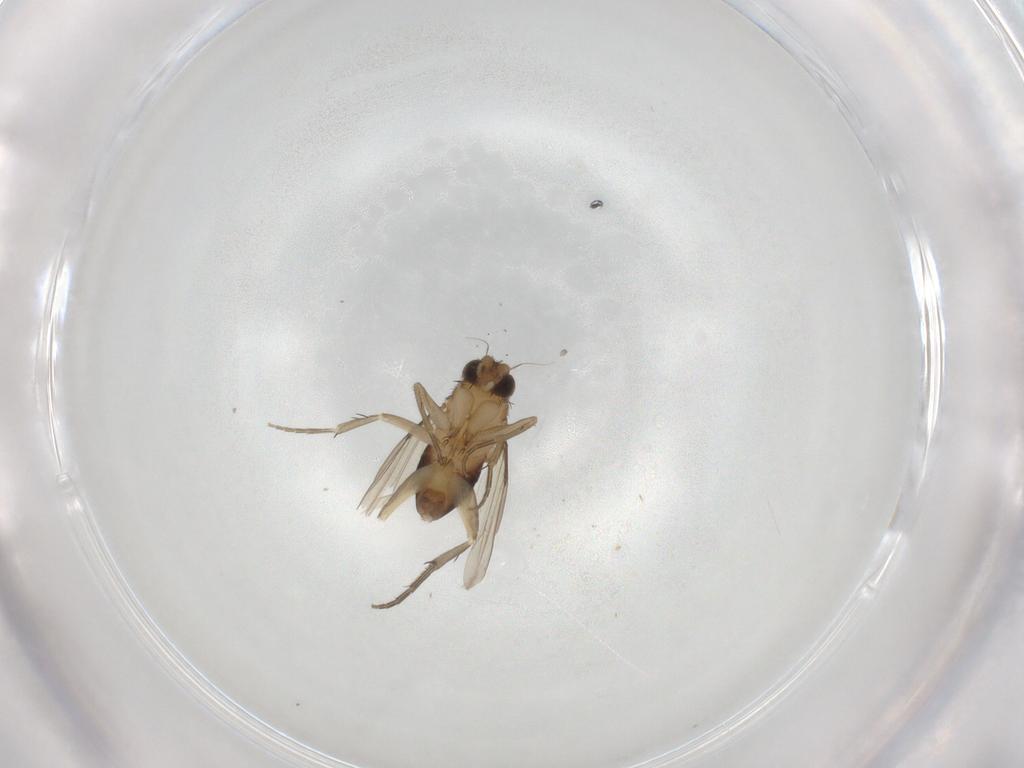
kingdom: Animalia
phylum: Arthropoda
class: Insecta
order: Diptera
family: Phoridae
